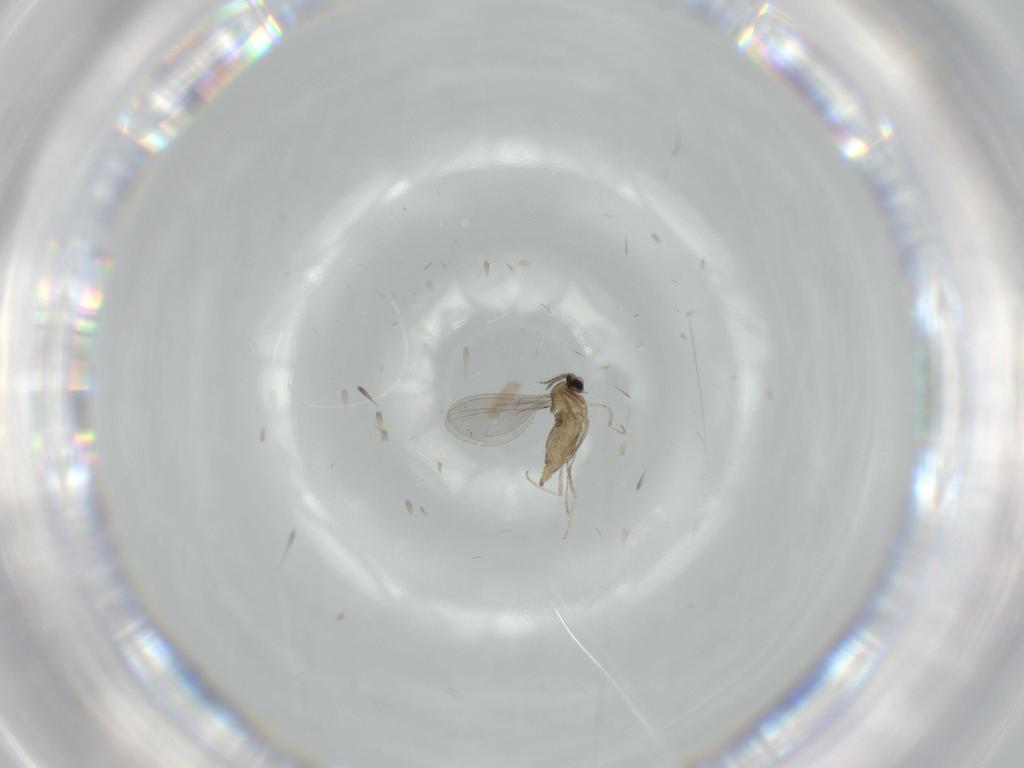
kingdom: Animalia
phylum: Arthropoda
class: Insecta
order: Diptera
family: Cecidomyiidae
